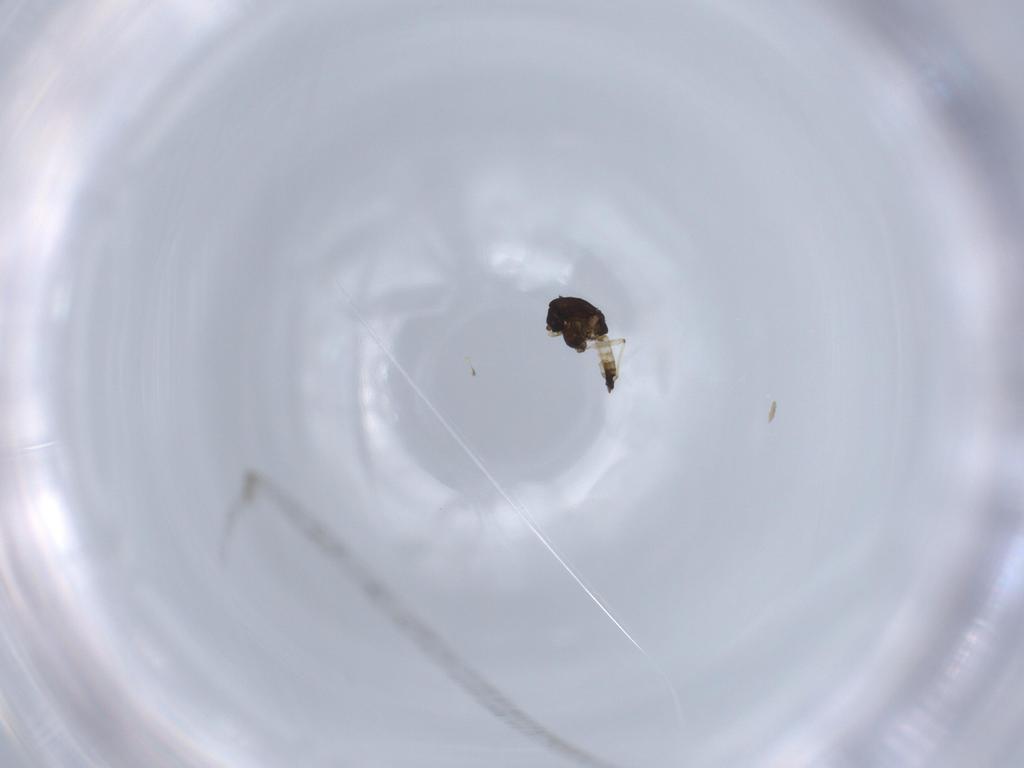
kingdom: Animalia
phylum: Arthropoda
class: Insecta
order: Diptera
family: Chironomidae
